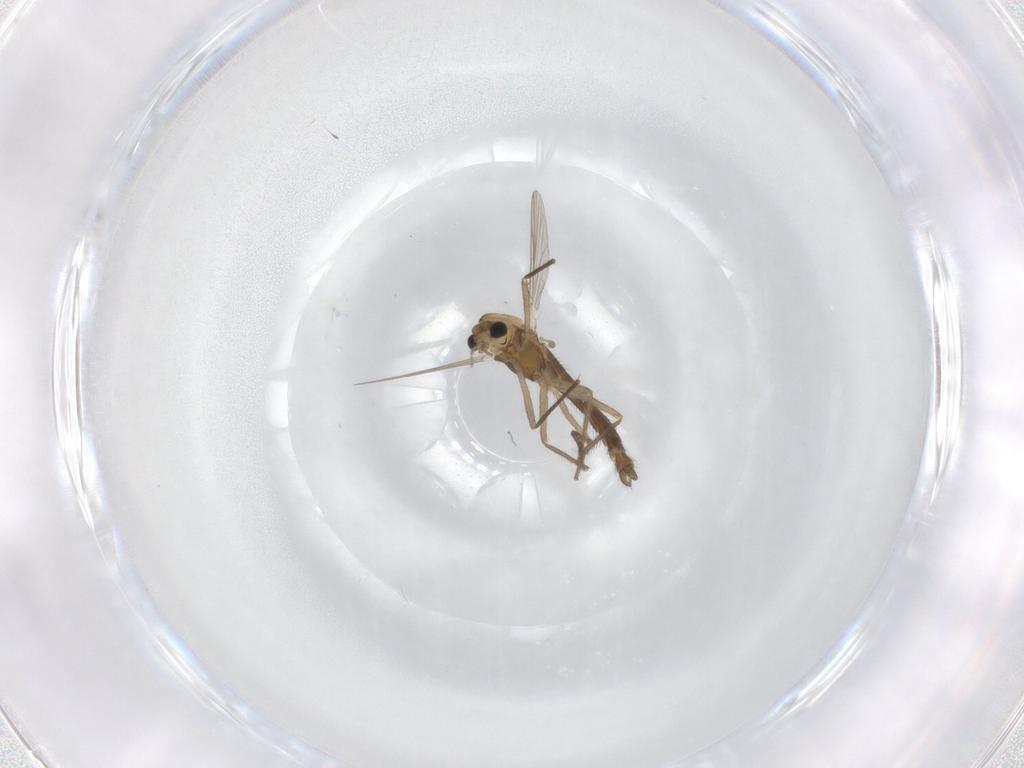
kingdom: Animalia
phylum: Arthropoda
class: Insecta
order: Diptera
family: Chironomidae
